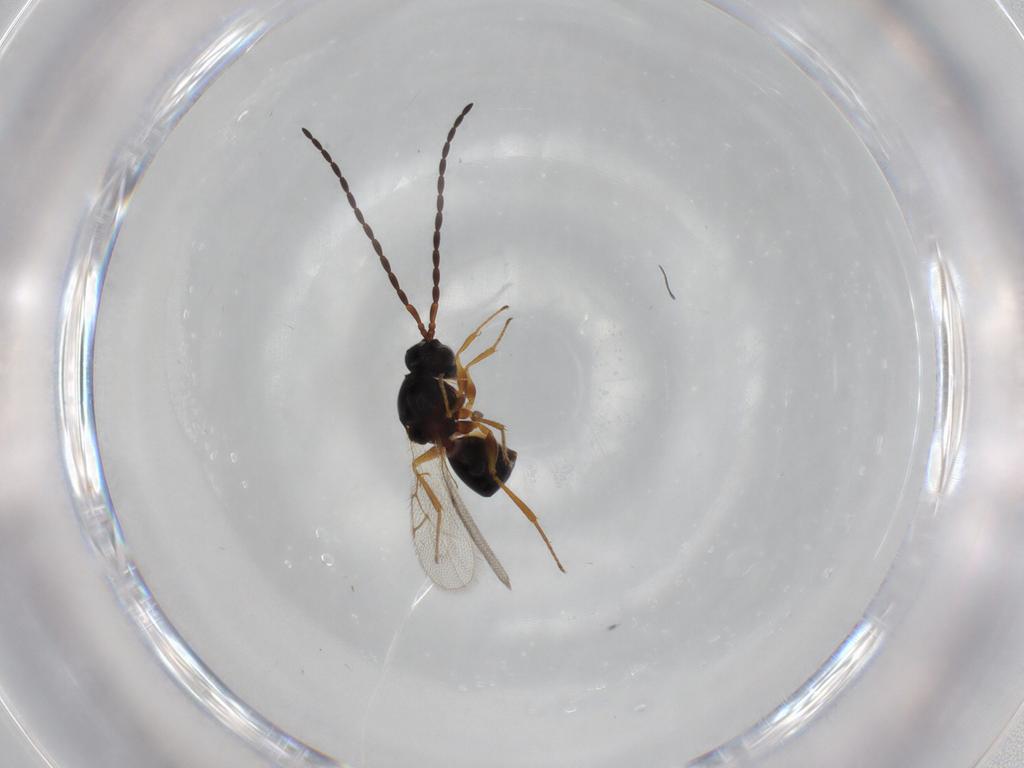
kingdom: Animalia
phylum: Arthropoda
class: Insecta
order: Hymenoptera
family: Figitidae
